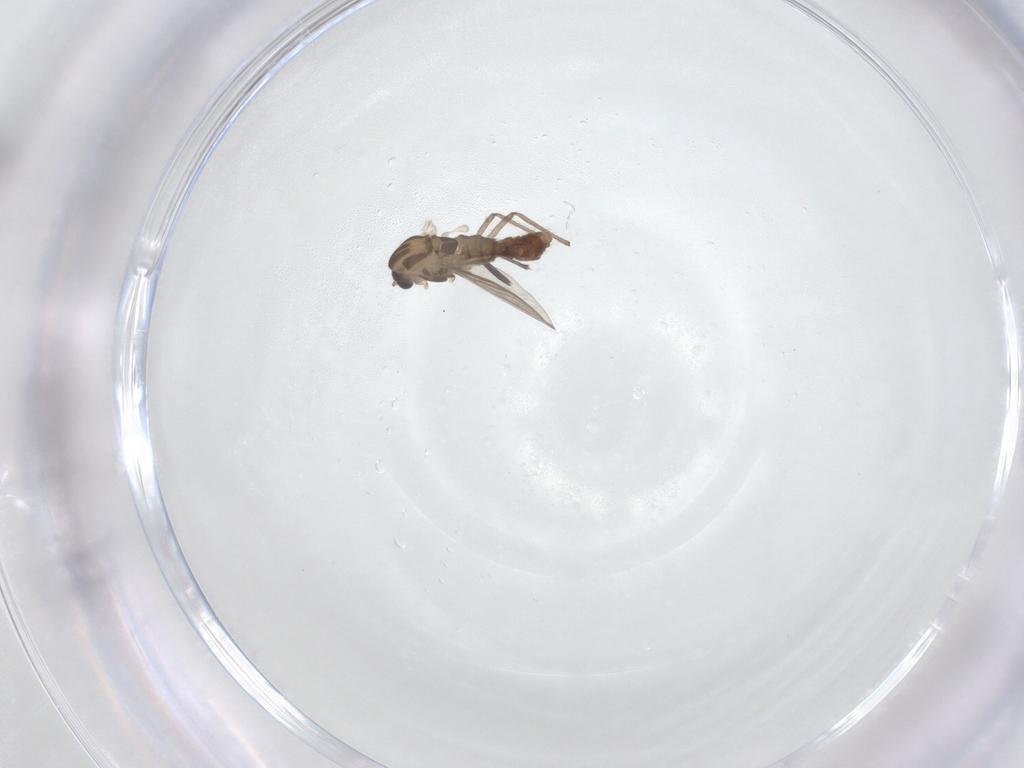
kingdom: Animalia
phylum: Arthropoda
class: Insecta
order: Diptera
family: Chironomidae
